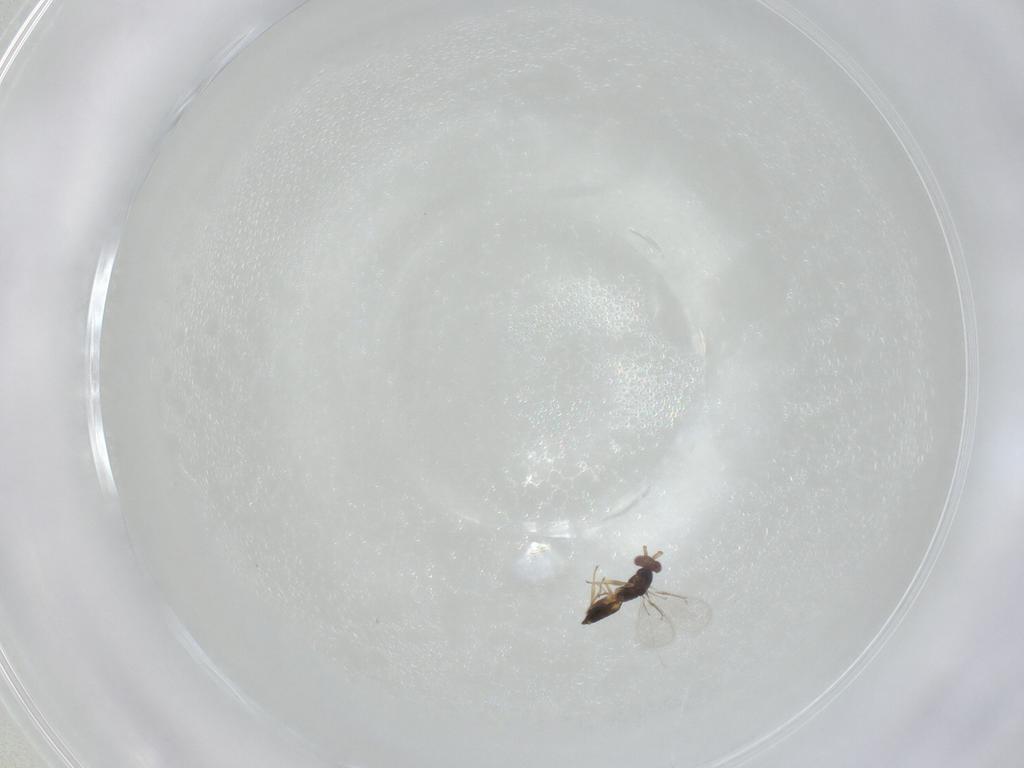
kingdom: Animalia
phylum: Arthropoda
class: Insecta
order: Hymenoptera
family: Eulophidae
